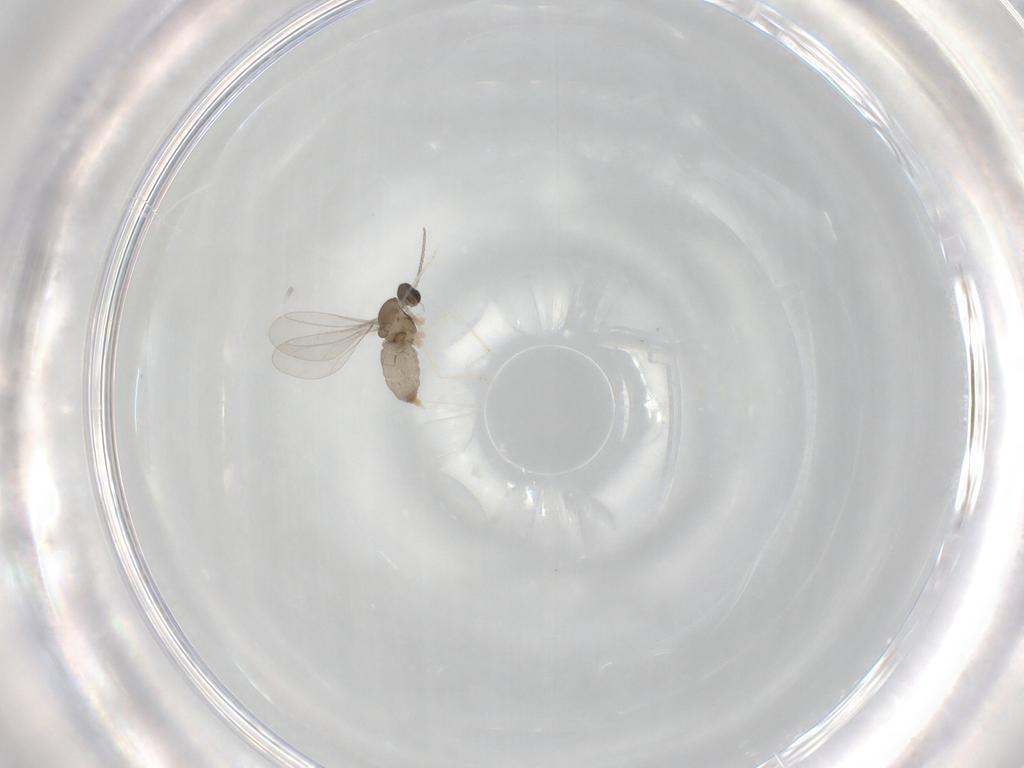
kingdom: Animalia
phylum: Arthropoda
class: Insecta
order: Diptera
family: Cecidomyiidae
